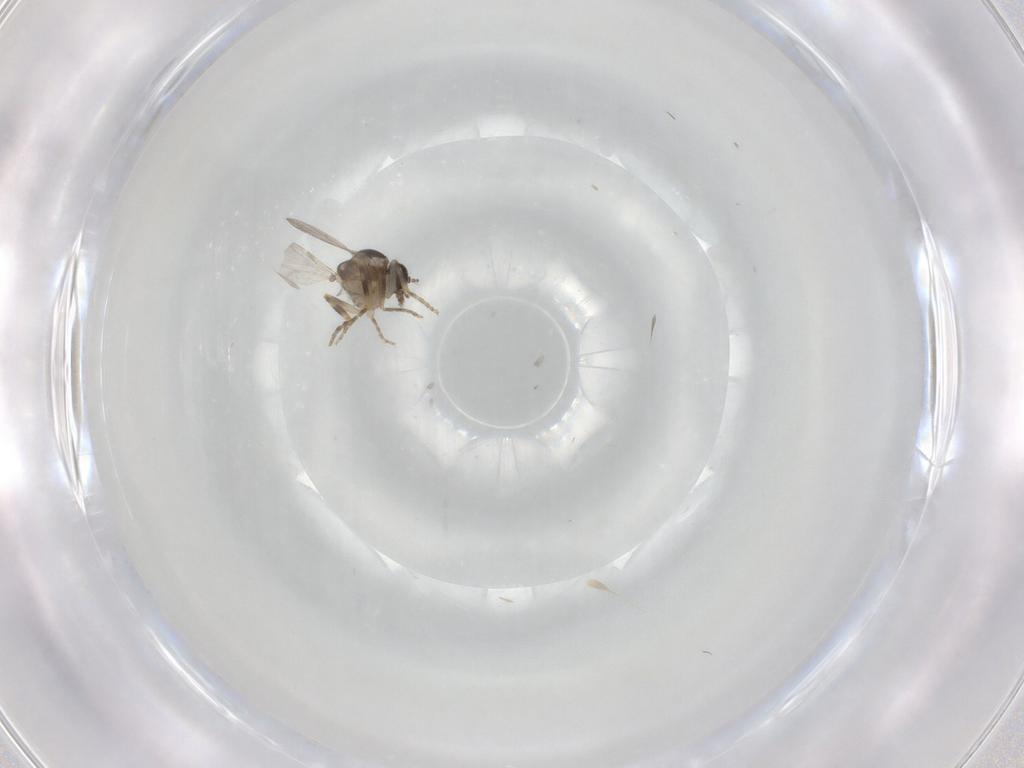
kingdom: Animalia
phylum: Arthropoda
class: Insecta
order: Diptera
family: Ceratopogonidae
